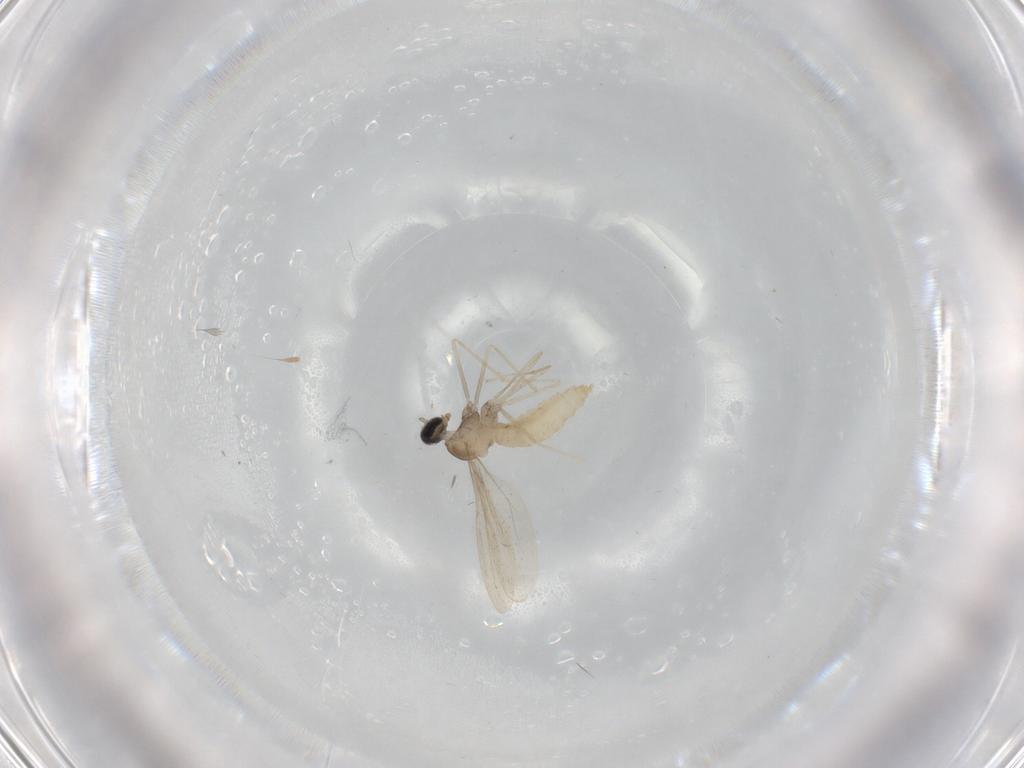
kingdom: Animalia
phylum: Arthropoda
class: Insecta
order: Diptera
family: Cecidomyiidae
